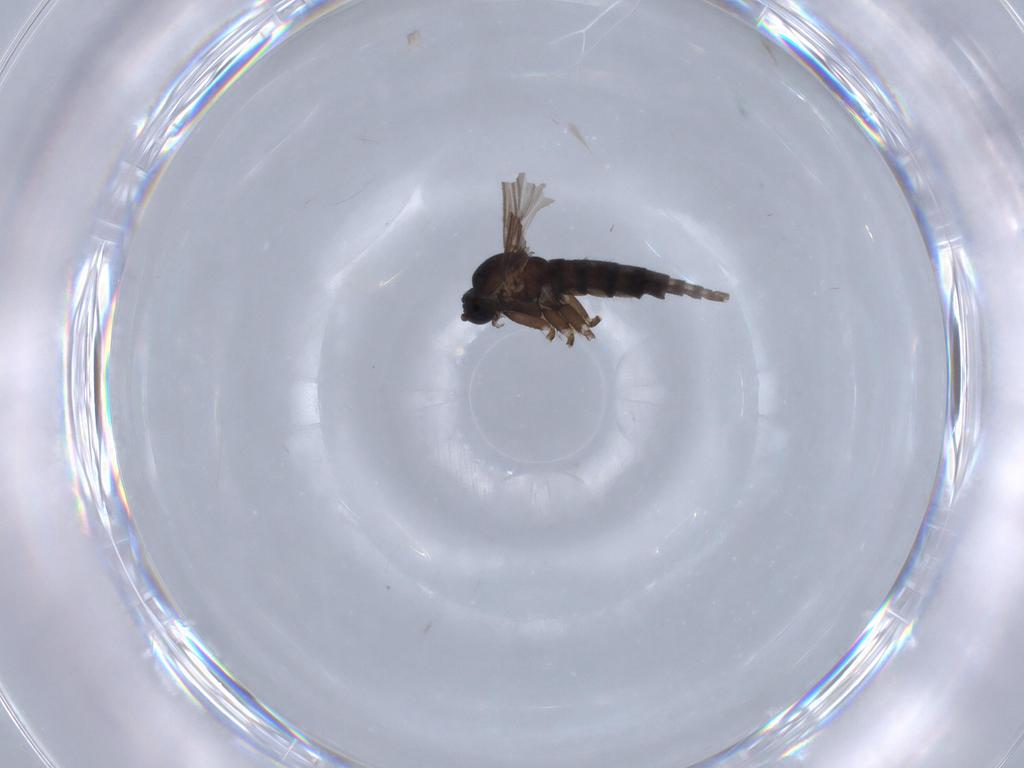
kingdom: Animalia
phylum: Arthropoda
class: Insecta
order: Diptera
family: Sciaridae
